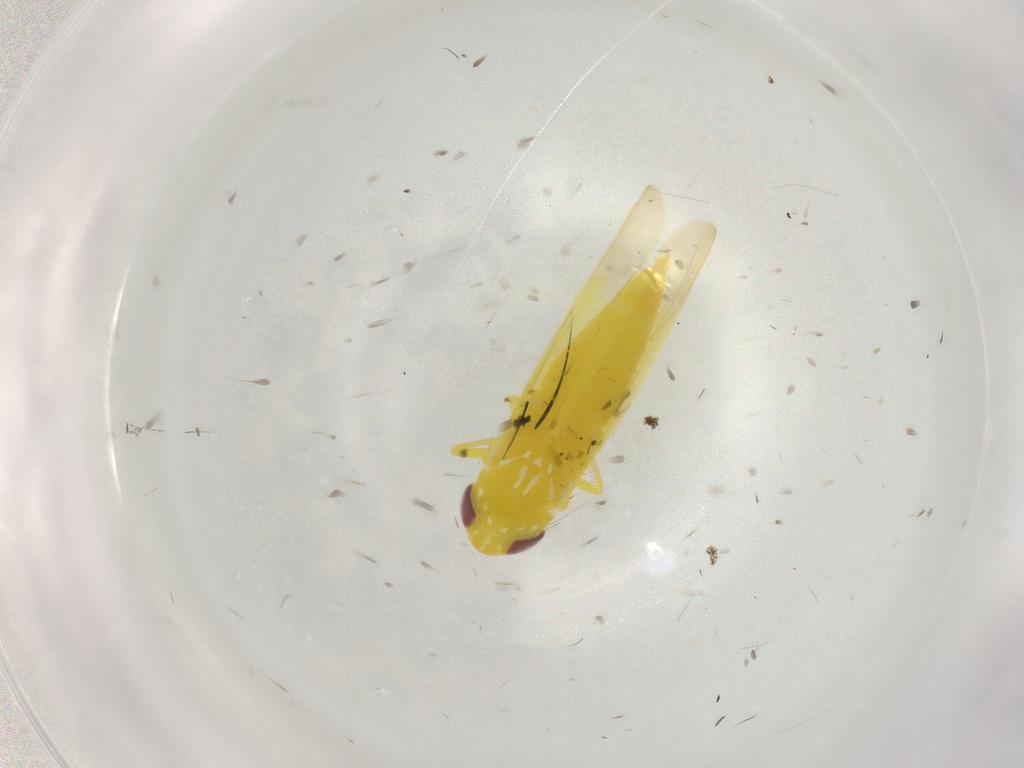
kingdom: Animalia
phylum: Arthropoda
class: Insecta
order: Hemiptera
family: Cicadellidae
